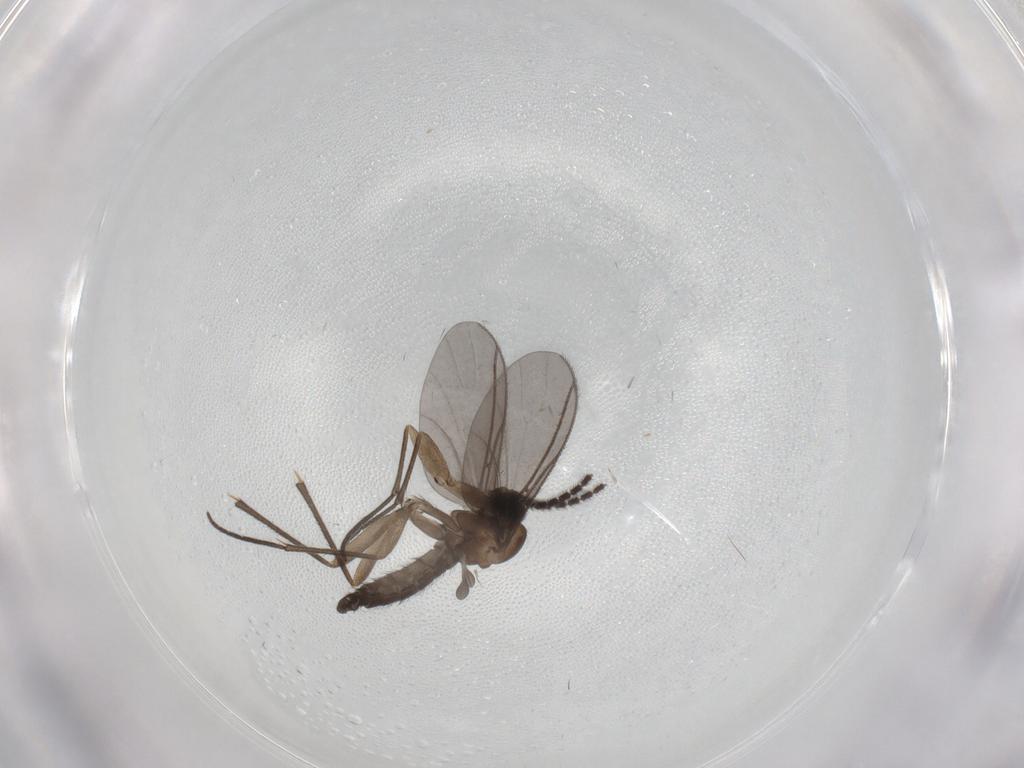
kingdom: Animalia
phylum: Arthropoda
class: Insecta
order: Diptera
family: Sciaridae
